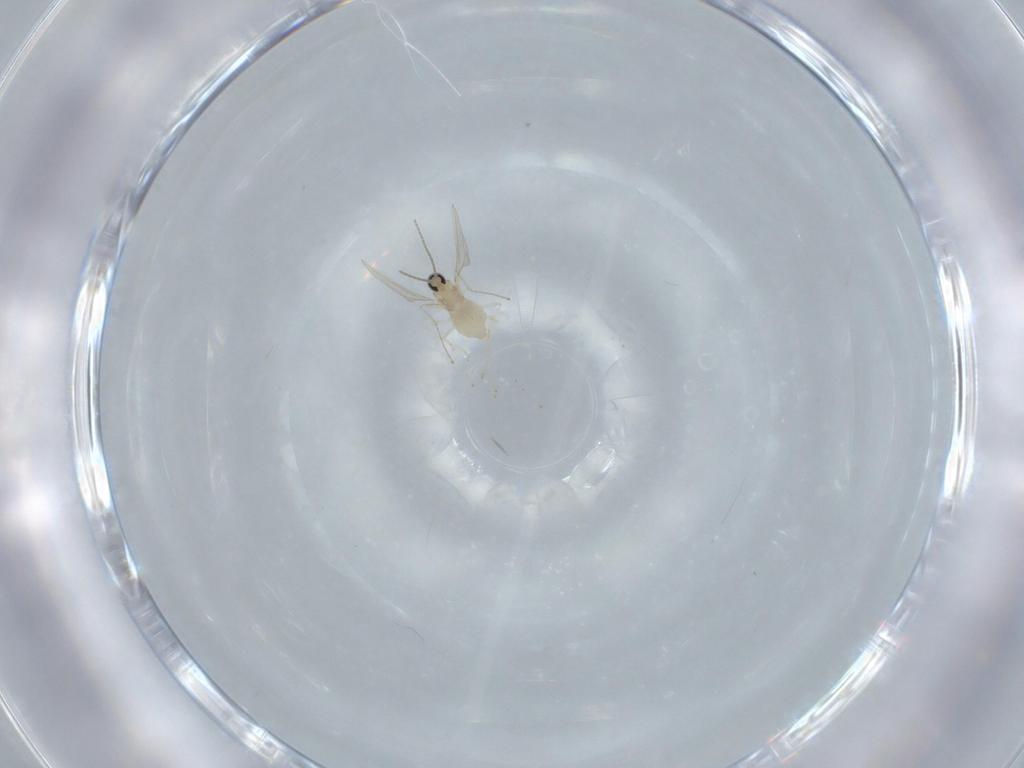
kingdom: Animalia
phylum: Arthropoda
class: Insecta
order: Diptera
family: Cecidomyiidae
